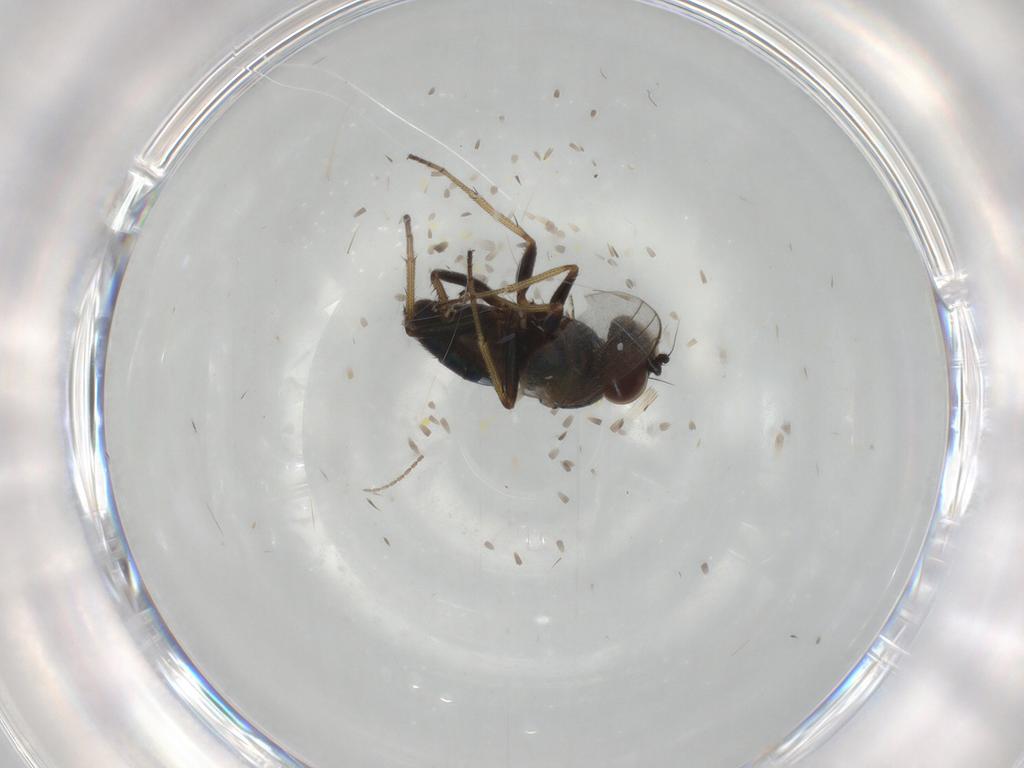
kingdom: Animalia
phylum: Arthropoda
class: Insecta
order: Diptera
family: Dolichopodidae
